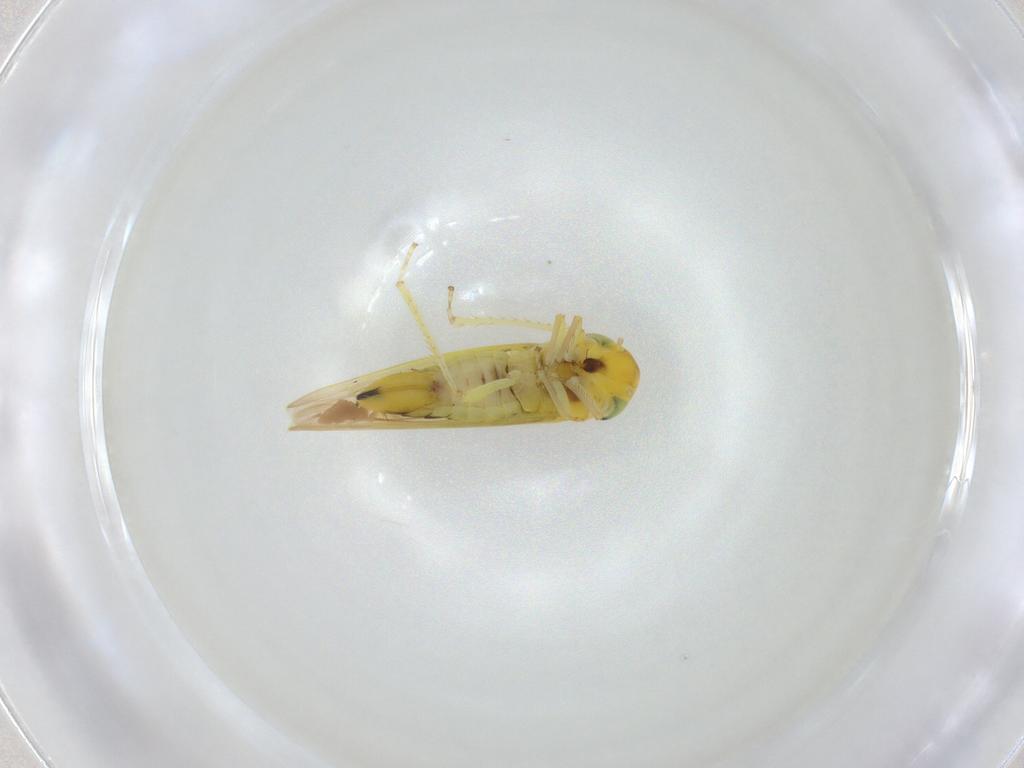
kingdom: Animalia
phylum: Arthropoda
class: Insecta
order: Hemiptera
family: Cicadellidae
